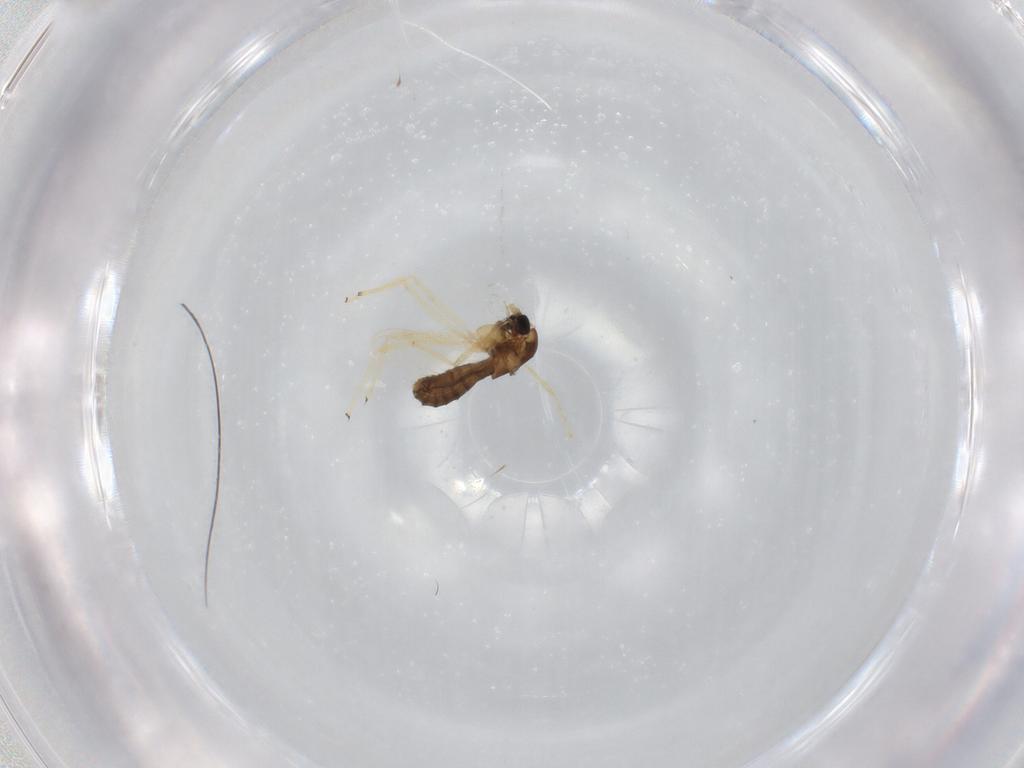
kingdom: Animalia
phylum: Arthropoda
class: Insecta
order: Diptera
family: Chironomidae
